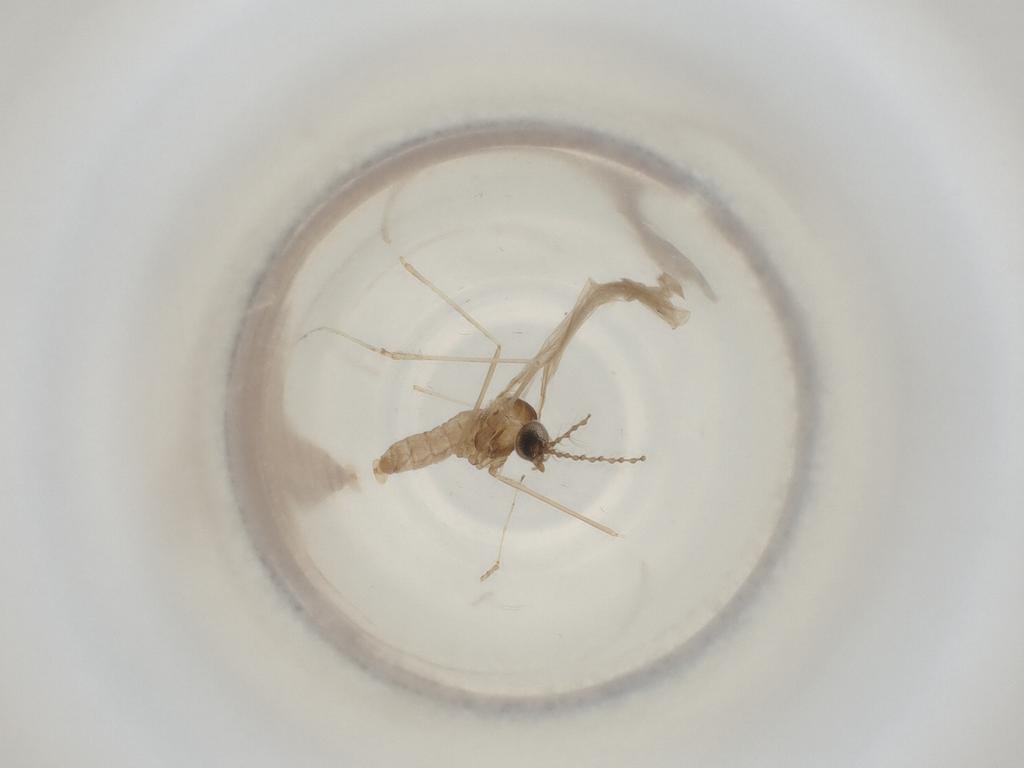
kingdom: Animalia
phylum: Arthropoda
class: Insecta
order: Diptera
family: Cecidomyiidae
